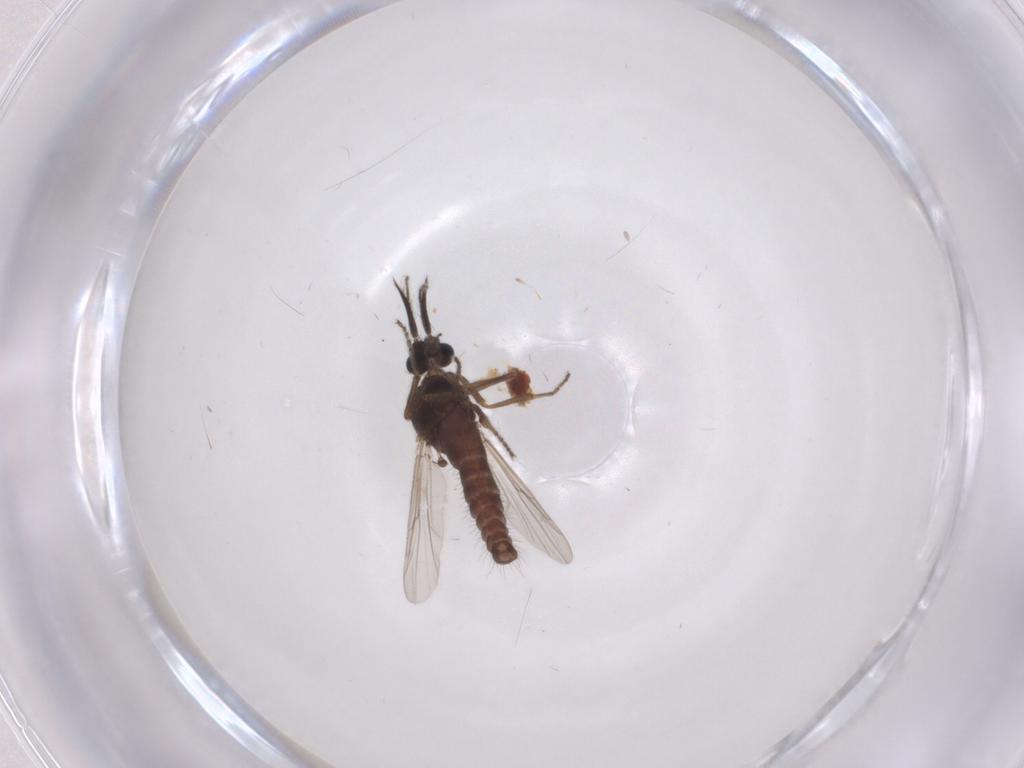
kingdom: Animalia
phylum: Arthropoda
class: Insecta
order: Diptera
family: Ceratopogonidae
